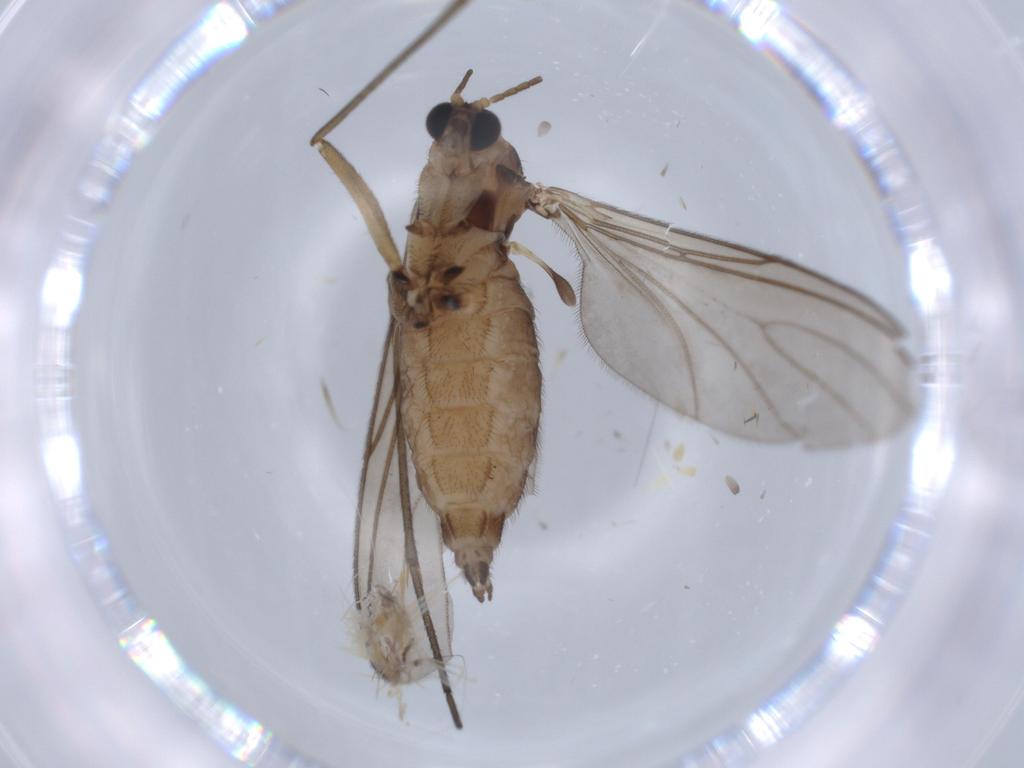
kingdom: Animalia
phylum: Arthropoda
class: Insecta
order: Diptera
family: Sciaridae
